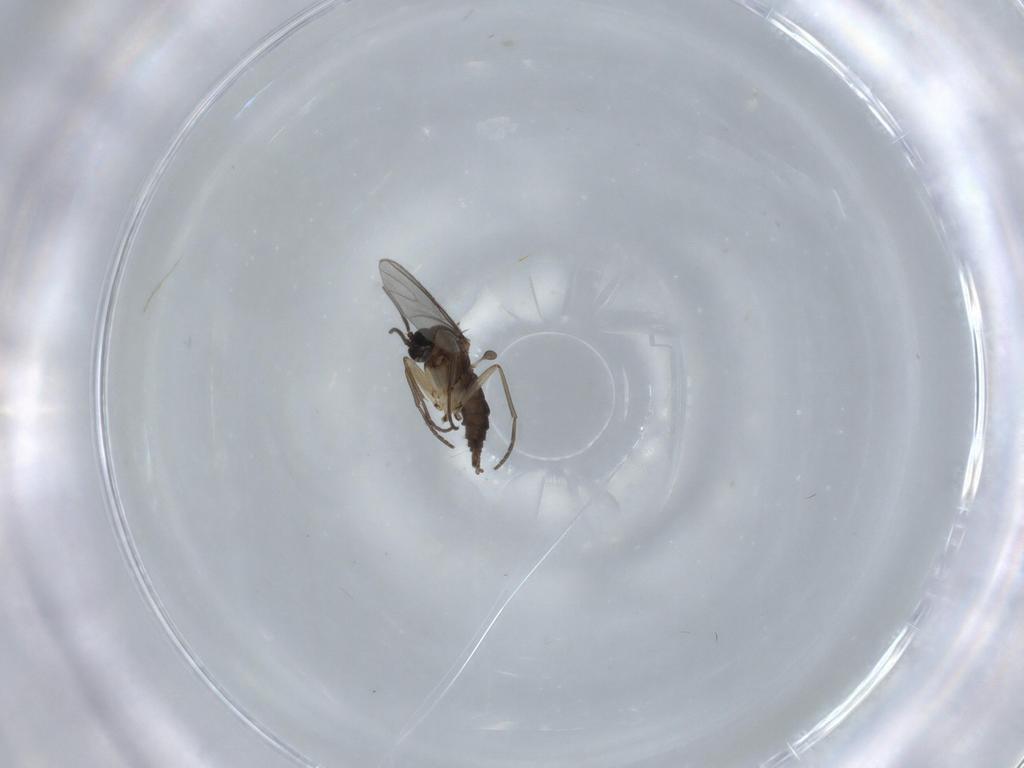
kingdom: Animalia
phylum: Arthropoda
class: Insecta
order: Diptera
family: Sciaridae
